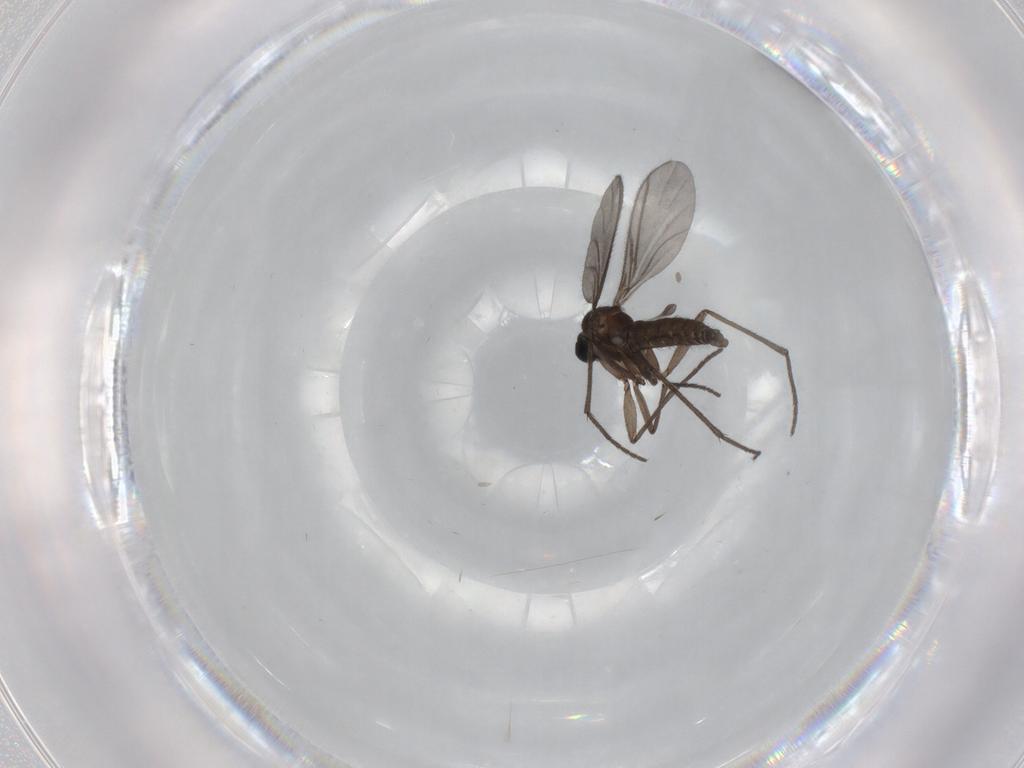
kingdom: Animalia
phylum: Arthropoda
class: Insecta
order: Diptera
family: Sciaridae
